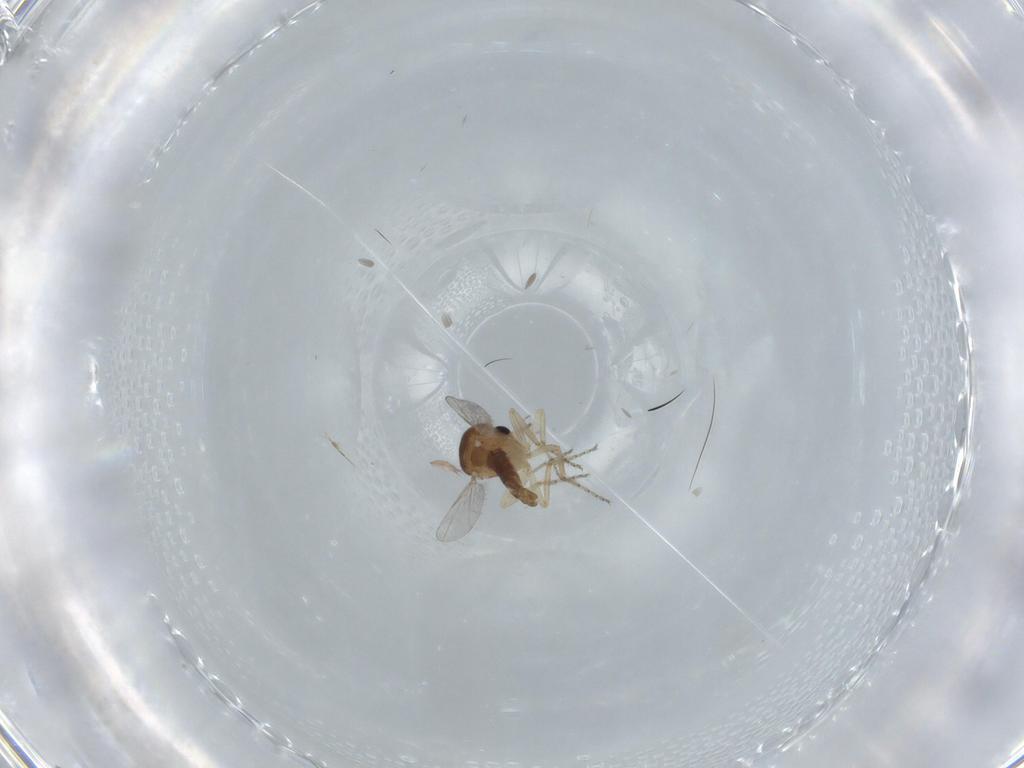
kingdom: Animalia
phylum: Arthropoda
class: Insecta
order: Diptera
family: Ceratopogonidae
